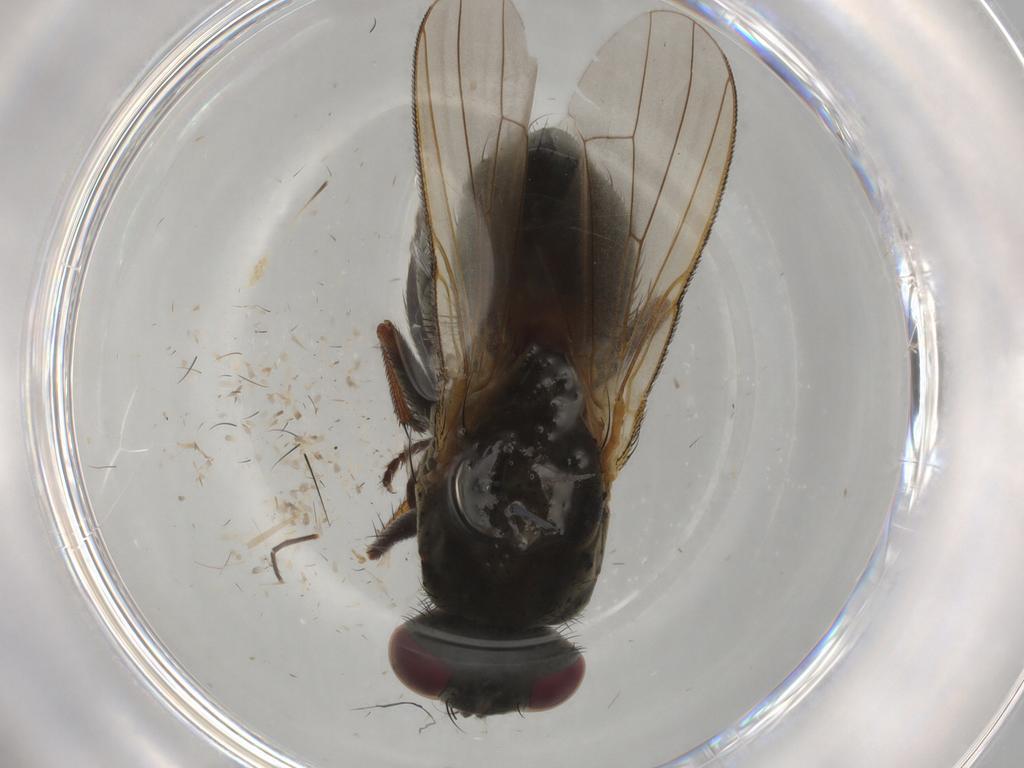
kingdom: Animalia
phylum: Arthropoda
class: Insecta
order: Diptera
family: Muscidae
